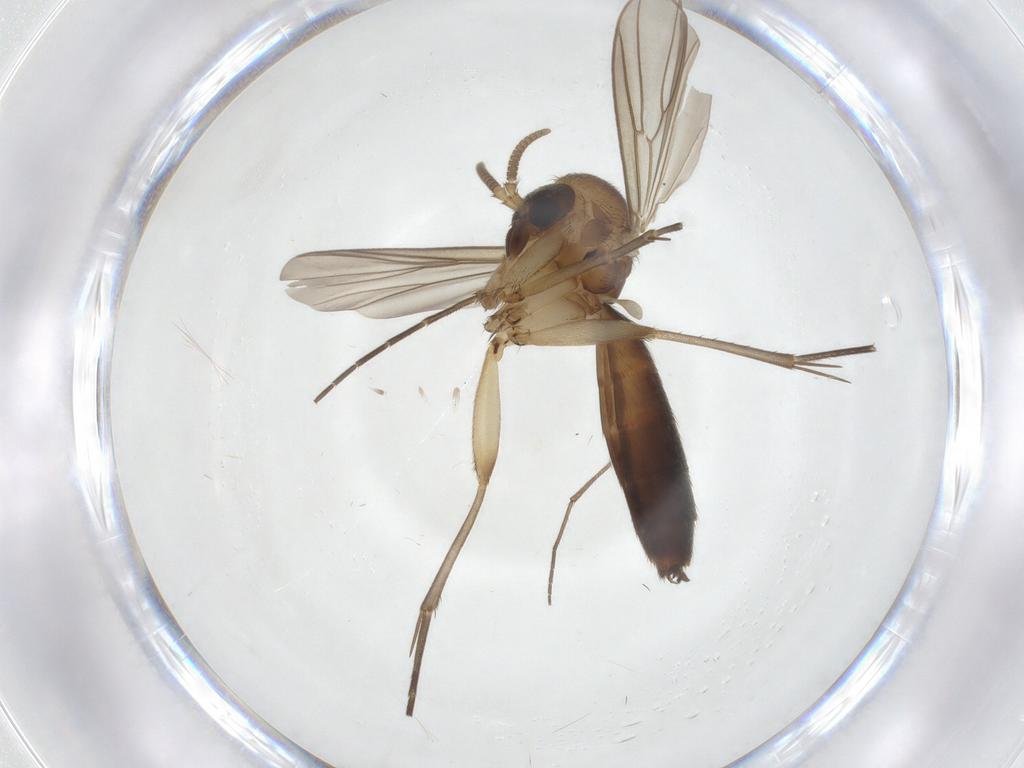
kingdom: Animalia
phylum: Arthropoda
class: Insecta
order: Diptera
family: Mycetophilidae
